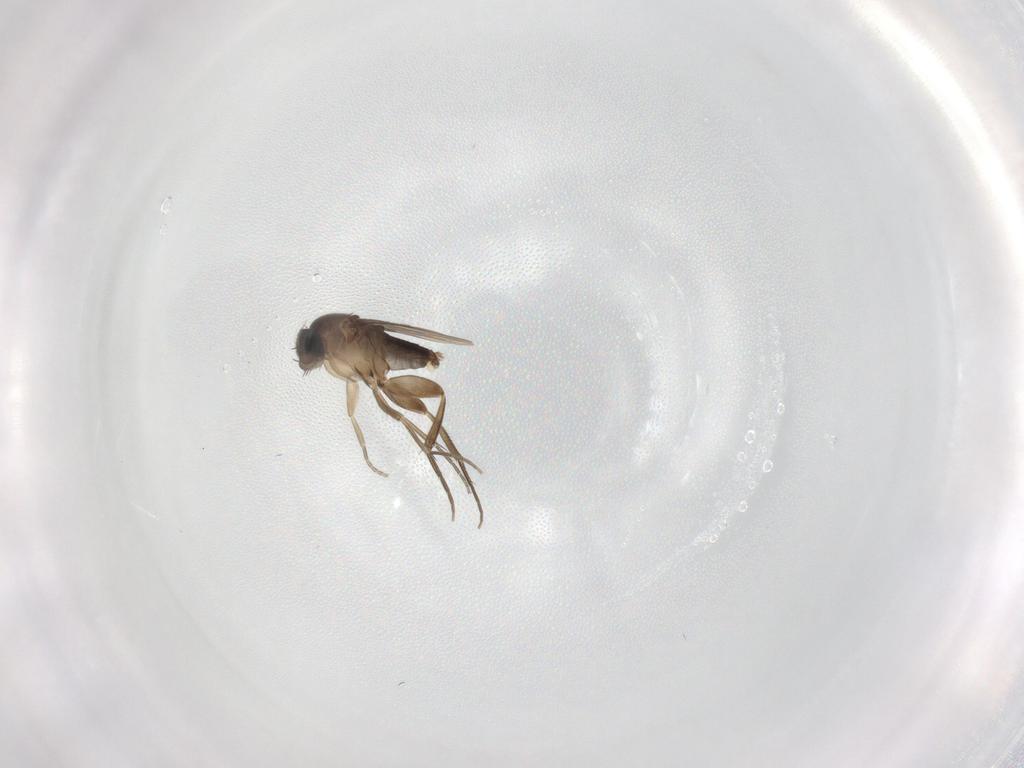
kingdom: Animalia
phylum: Arthropoda
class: Insecta
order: Diptera
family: Phoridae
